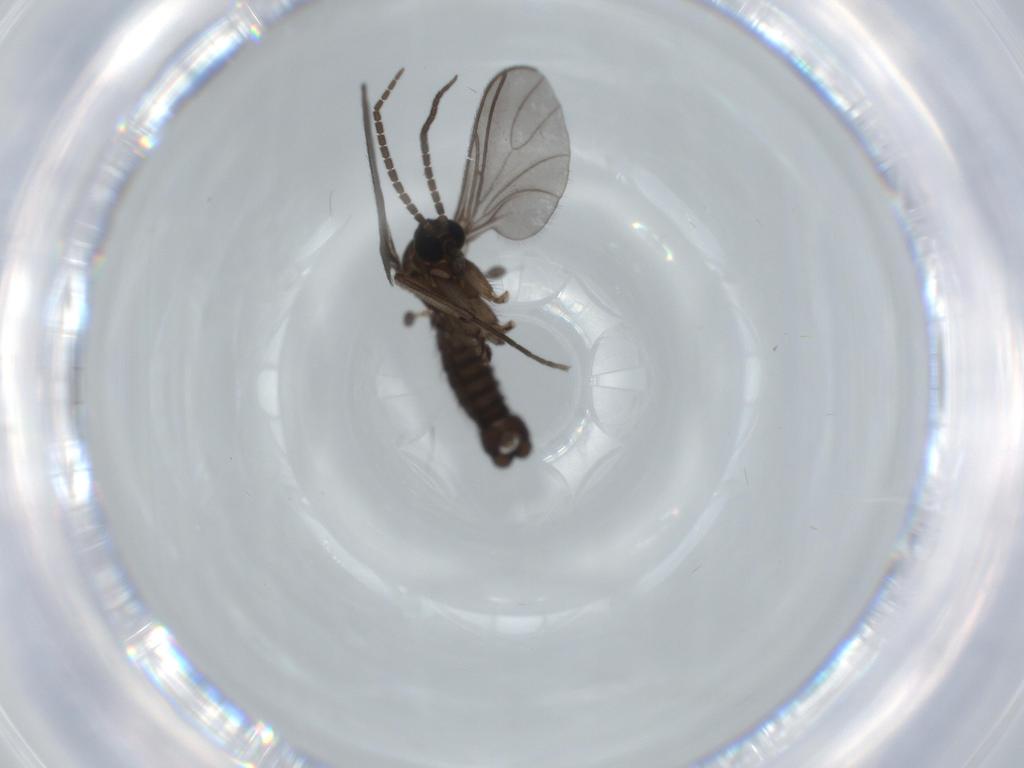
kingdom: Animalia
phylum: Arthropoda
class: Insecta
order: Diptera
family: Sciaridae
